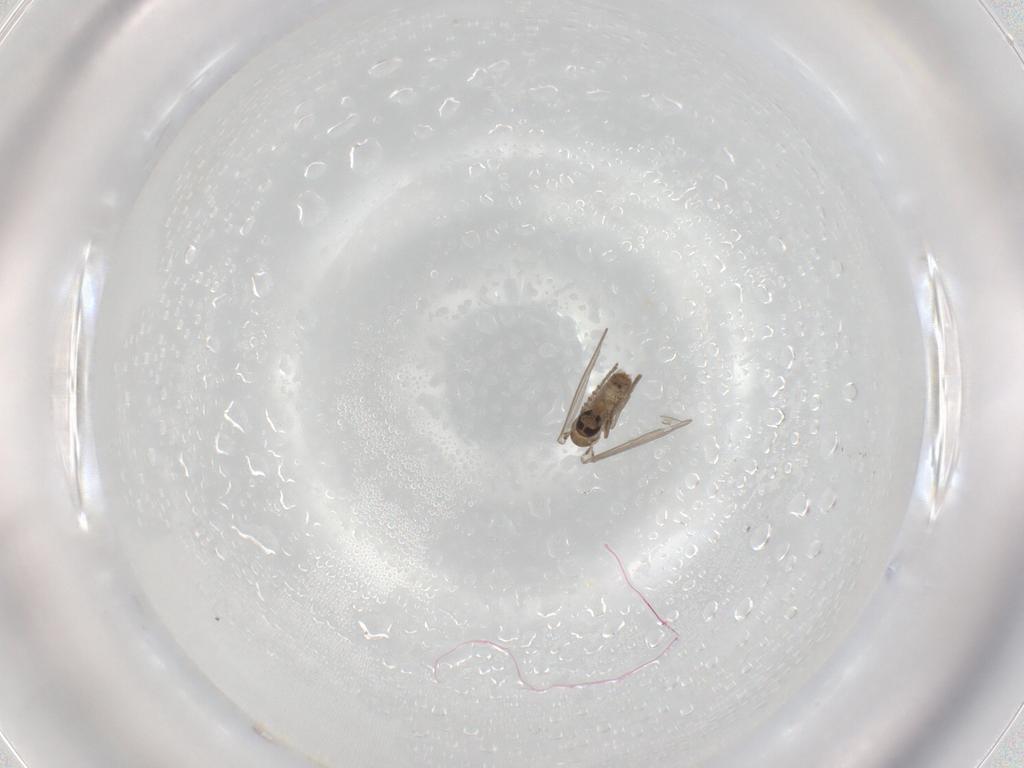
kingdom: Animalia
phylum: Arthropoda
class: Insecta
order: Diptera
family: Psychodidae
